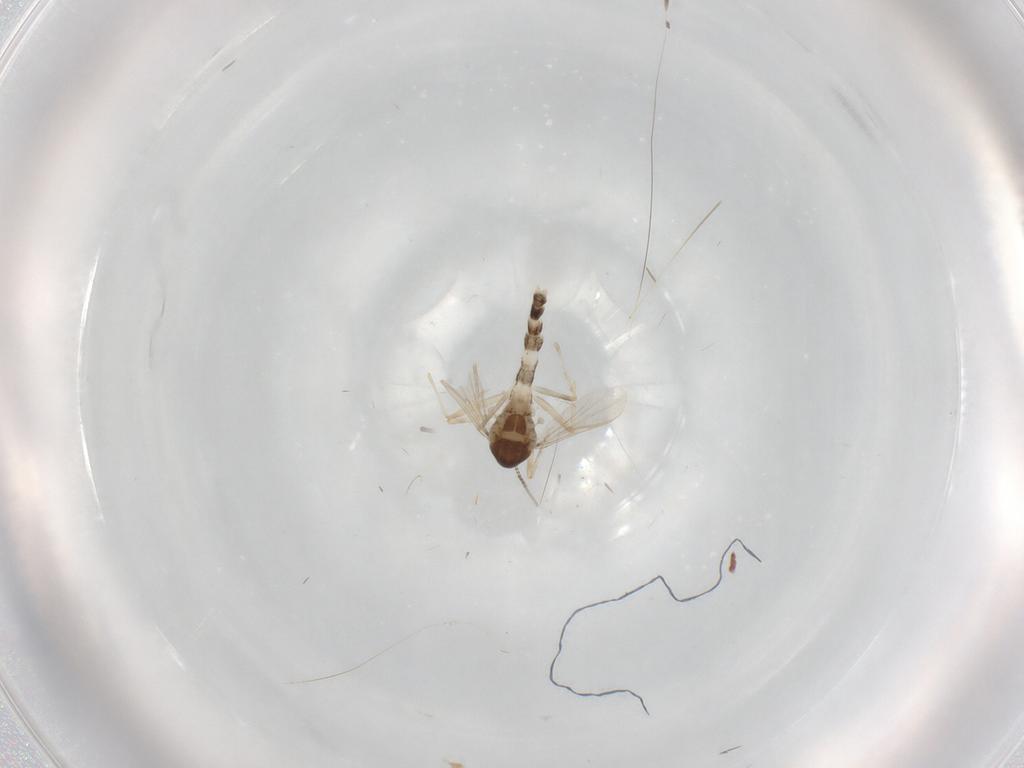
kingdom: Animalia
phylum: Arthropoda
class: Insecta
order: Diptera
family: Chironomidae
